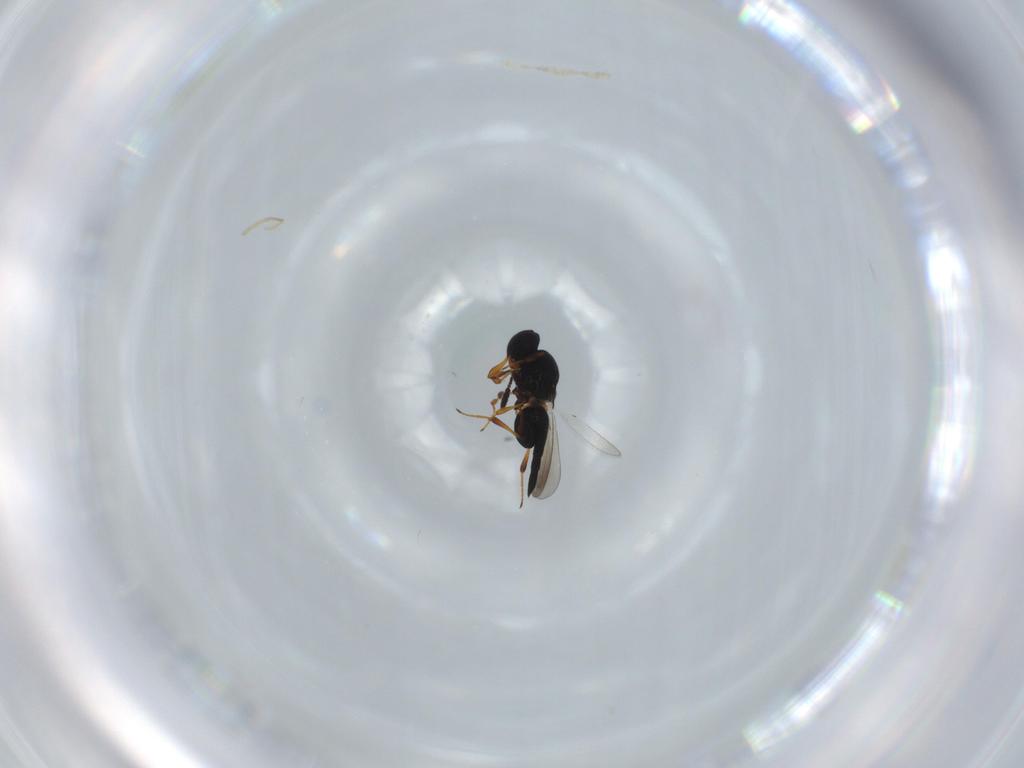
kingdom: Animalia
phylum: Arthropoda
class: Insecta
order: Hymenoptera
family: Platygastridae
